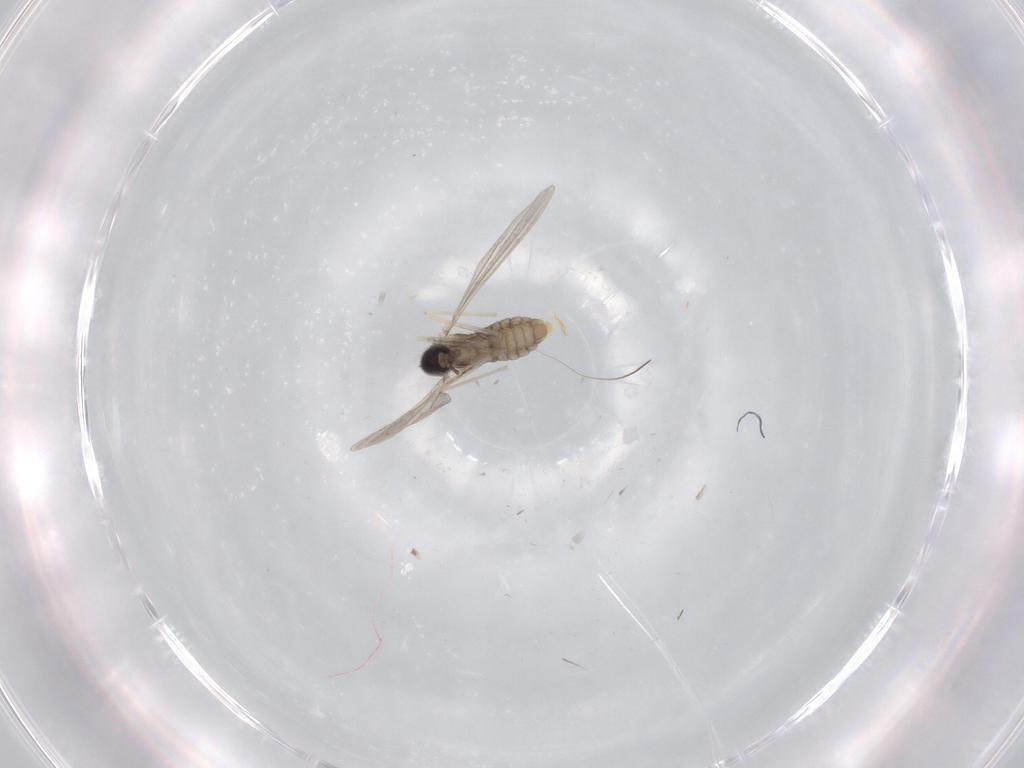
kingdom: Animalia
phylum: Arthropoda
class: Insecta
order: Diptera
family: Cecidomyiidae
